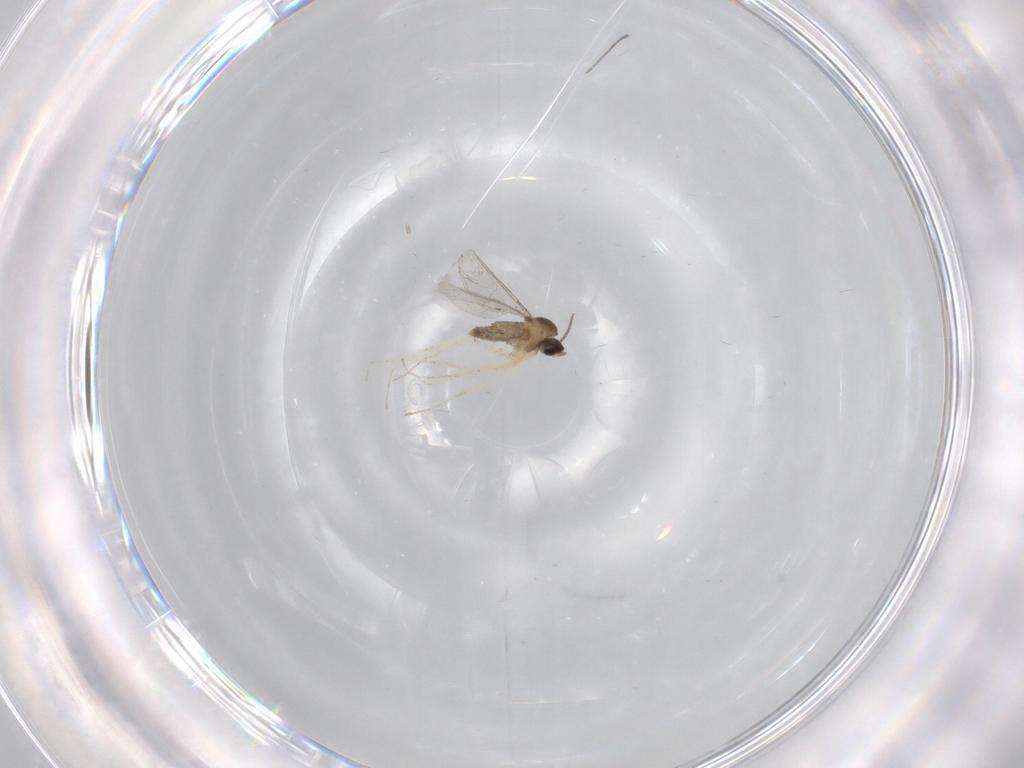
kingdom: Animalia
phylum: Arthropoda
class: Insecta
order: Diptera
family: Cecidomyiidae
